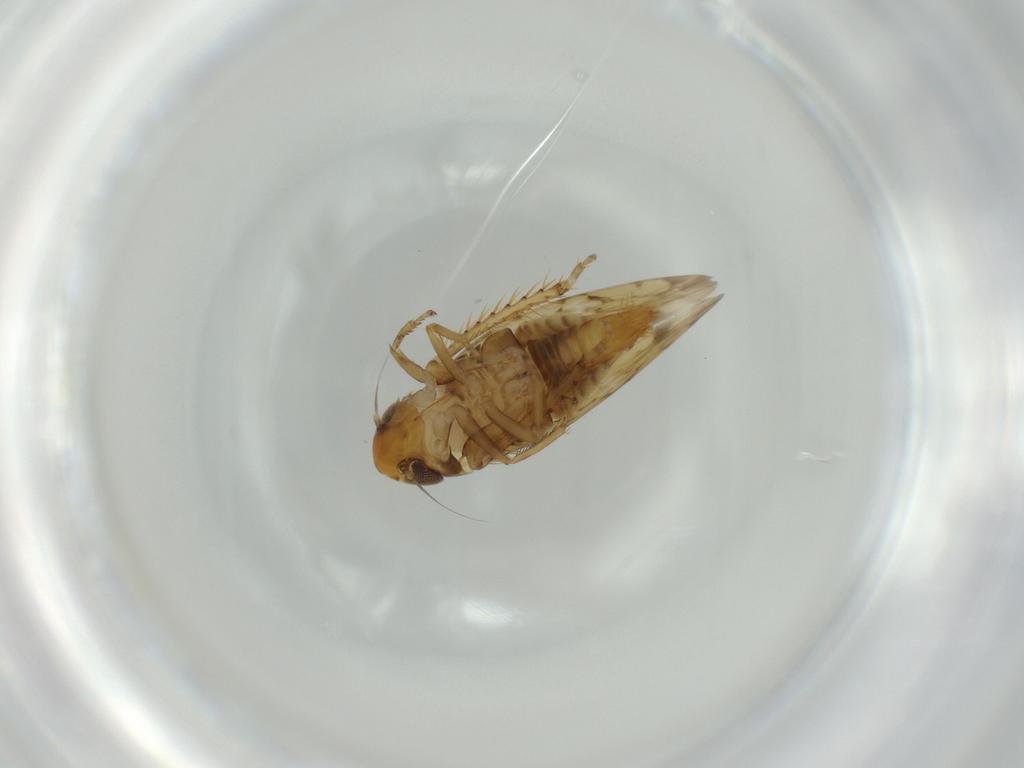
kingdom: Animalia
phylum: Arthropoda
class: Insecta
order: Hemiptera
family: Cicadellidae
